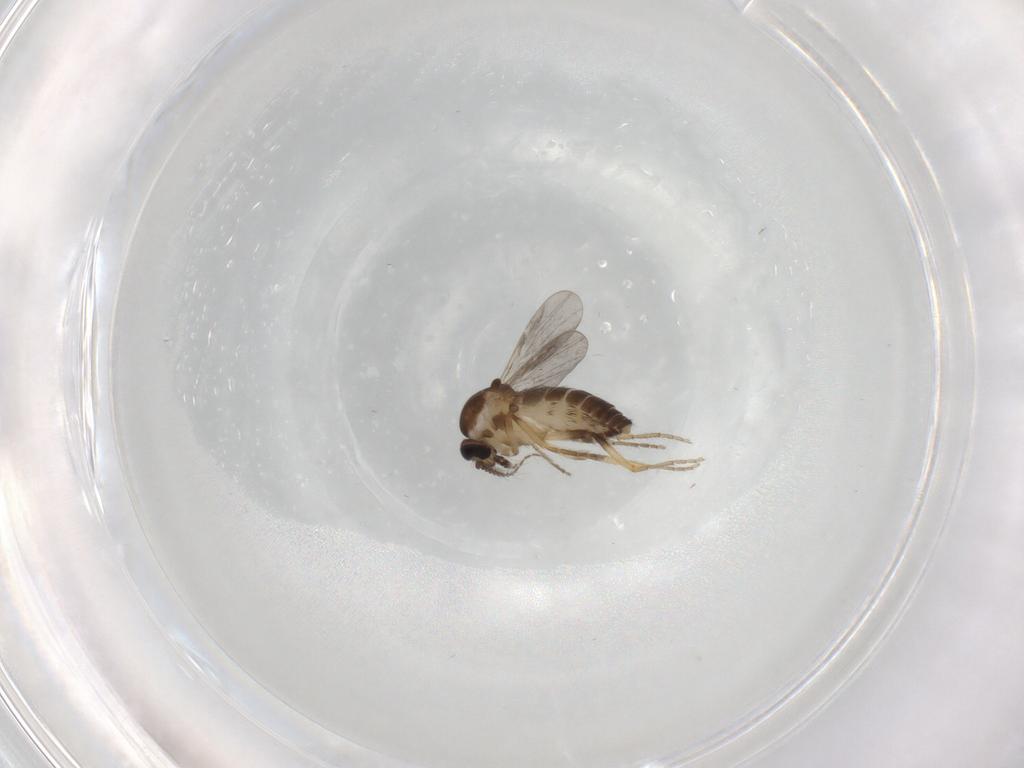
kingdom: Animalia
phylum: Arthropoda
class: Insecta
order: Diptera
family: Ceratopogonidae
